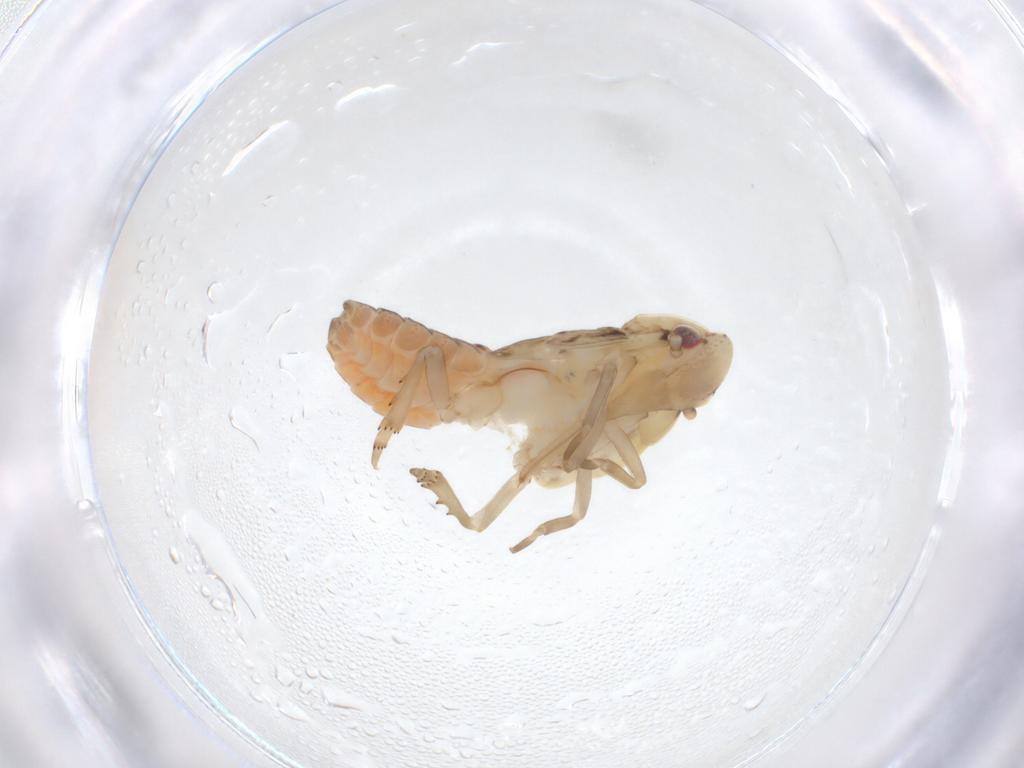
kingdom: Animalia
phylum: Arthropoda
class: Insecta
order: Hemiptera
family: Flatidae
